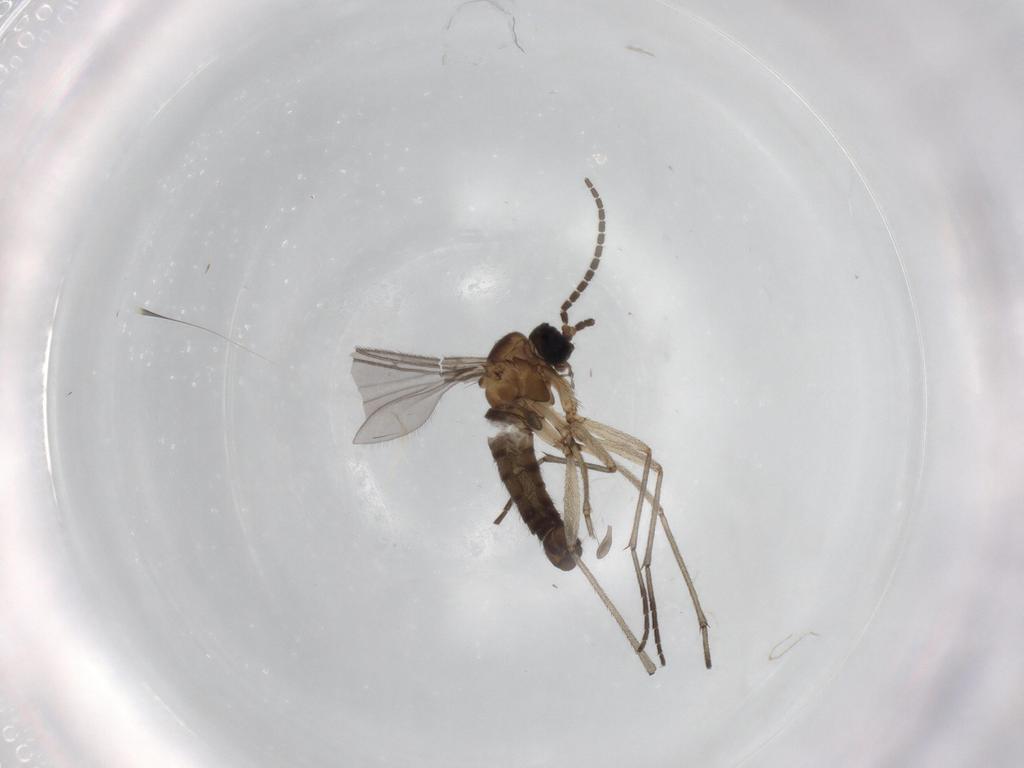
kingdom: Animalia
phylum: Arthropoda
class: Insecta
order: Diptera
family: Sciaridae
